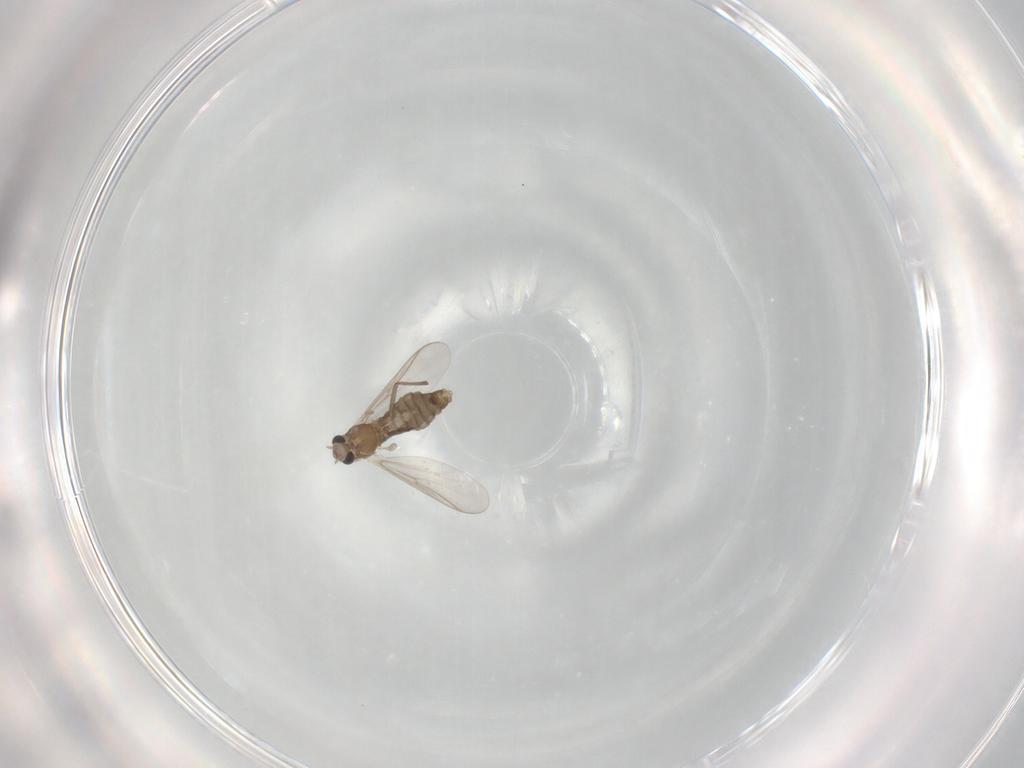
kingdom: Animalia
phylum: Arthropoda
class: Insecta
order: Diptera
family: Chironomidae
